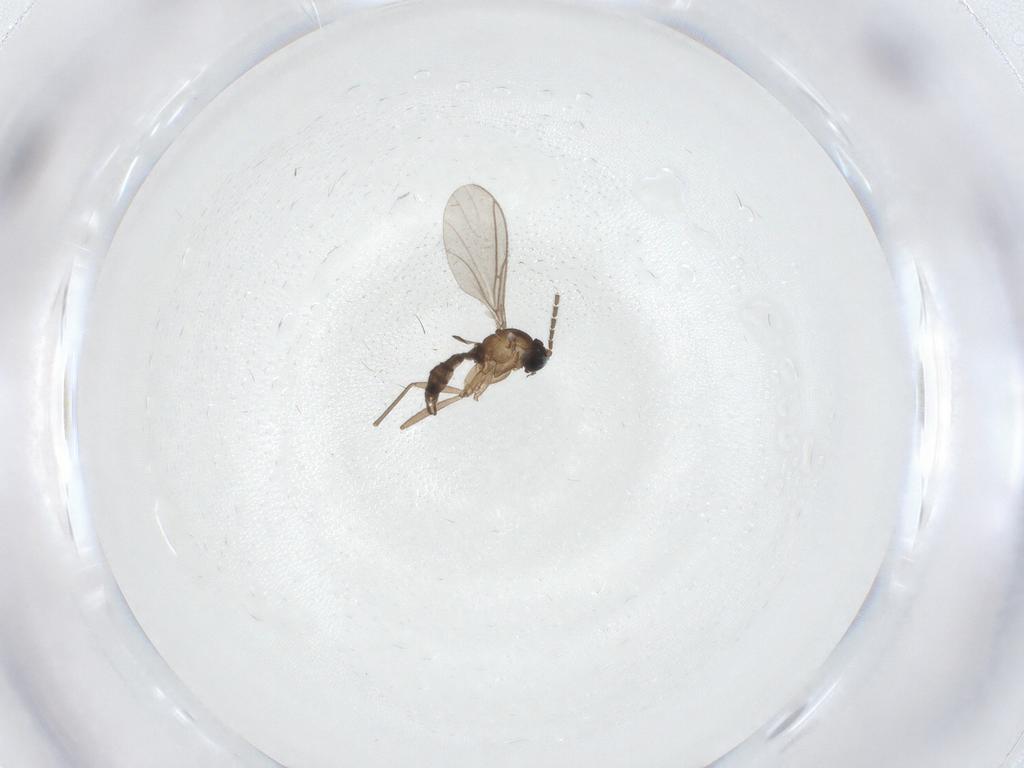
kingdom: Animalia
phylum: Arthropoda
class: Insecta
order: Diptera
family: Sciaridae
